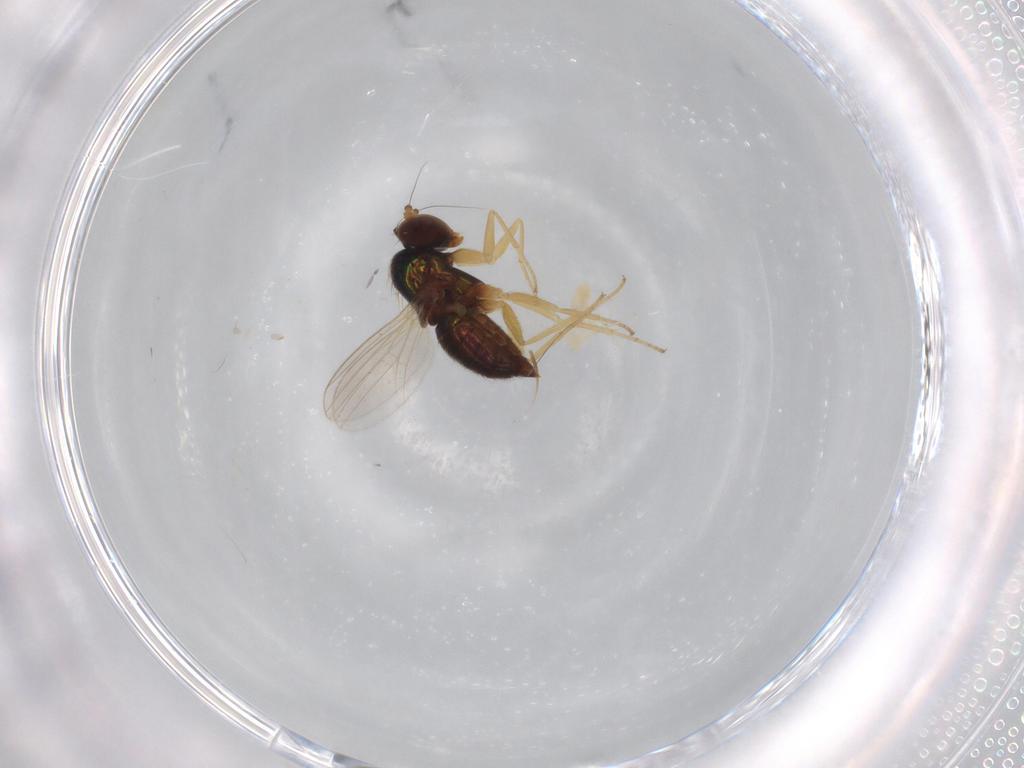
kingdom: Animalia
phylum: Arthropoda
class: Insecta
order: Diptera
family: Dolichopodidae
